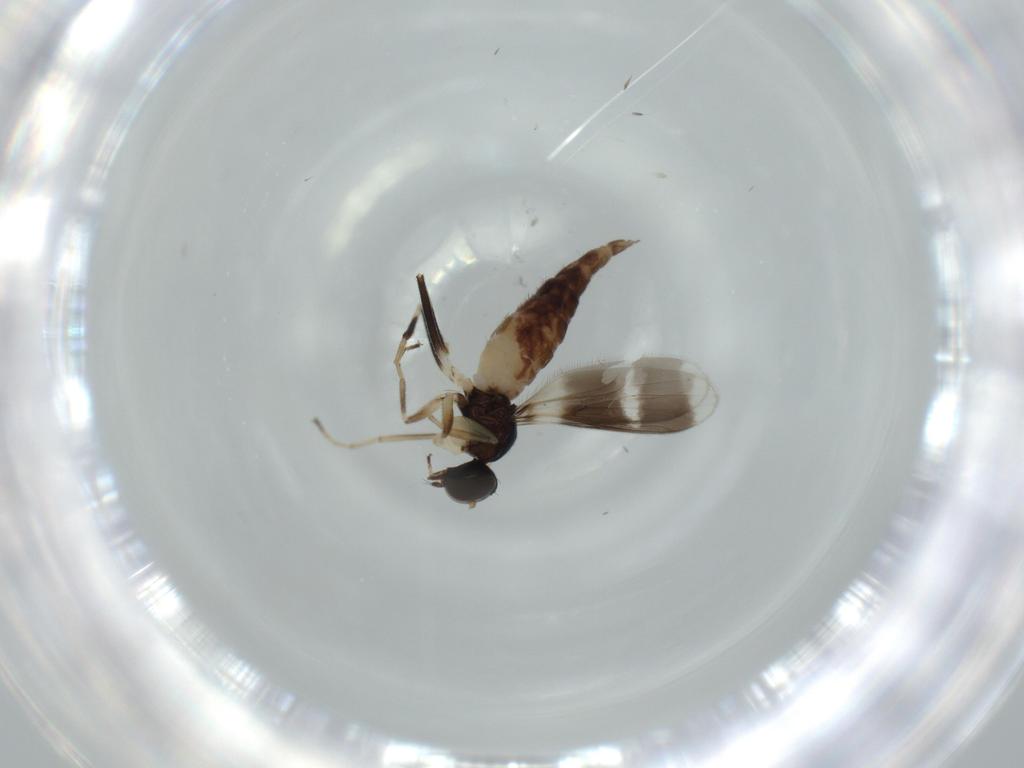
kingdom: Animalia
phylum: Arthropoda
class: Insecta
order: Diptera
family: Hybotidae
